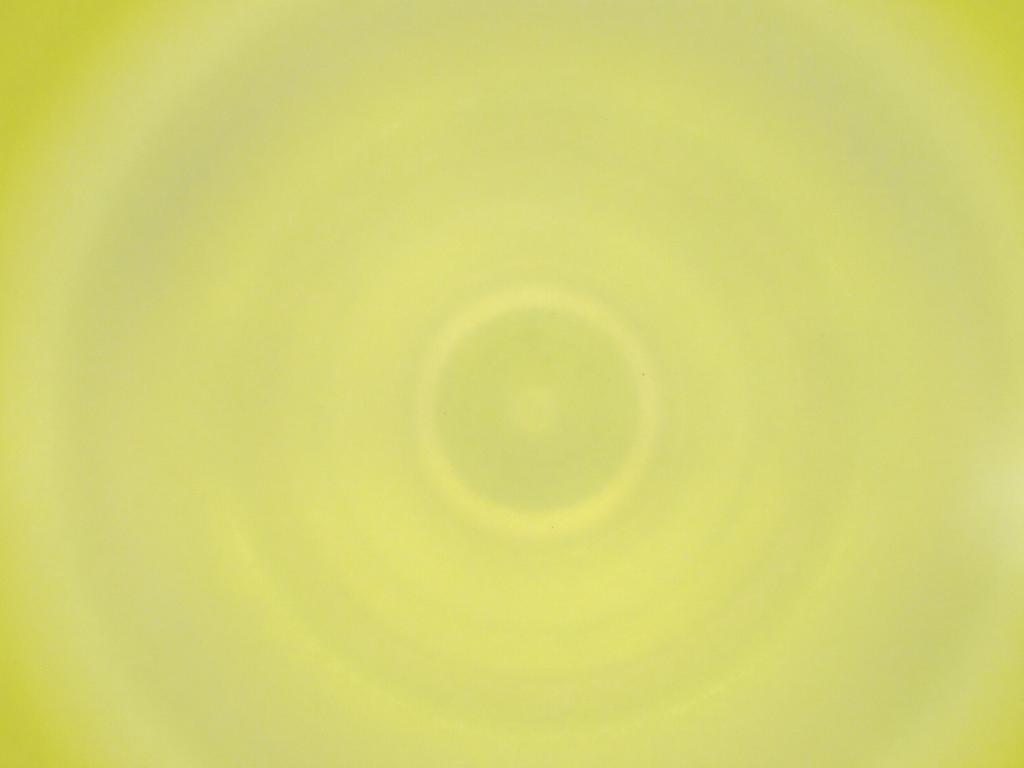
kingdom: Animalia
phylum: Arthropoda
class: Insecta
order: Diptera
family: Cecidomyiidae
